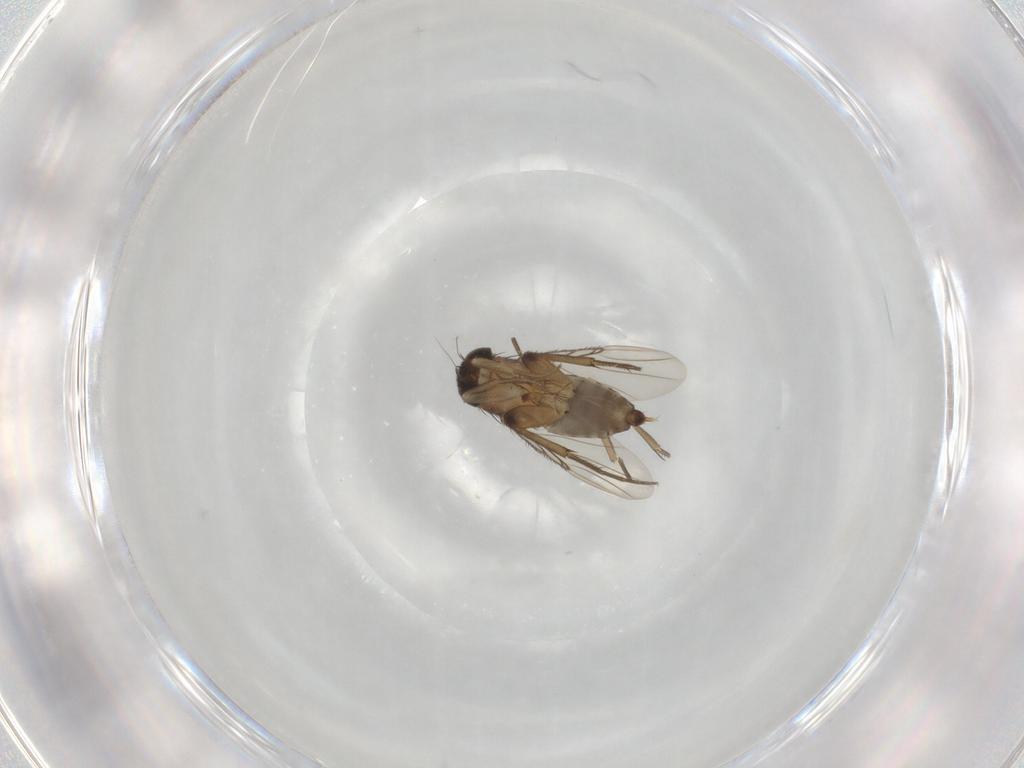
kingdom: Animalia
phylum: Arthropoda
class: Insecta
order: Diptera
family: Phoridae
